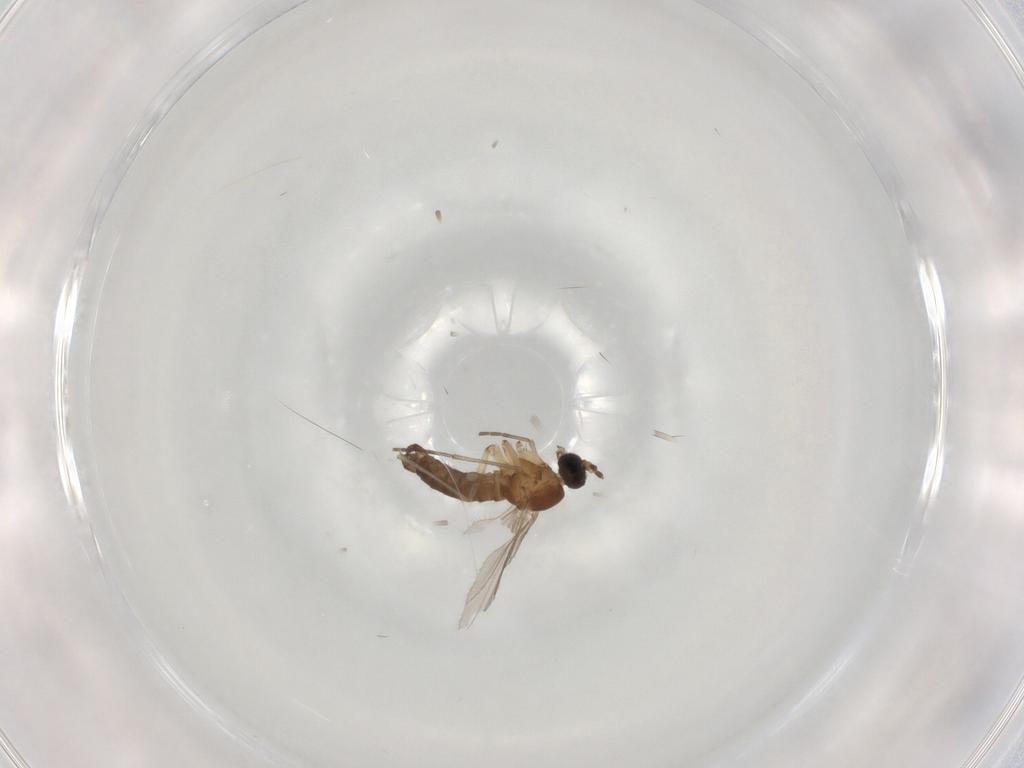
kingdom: Animalia
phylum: Arthropoda
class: Insecta
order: Diptera
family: Sciaridae
